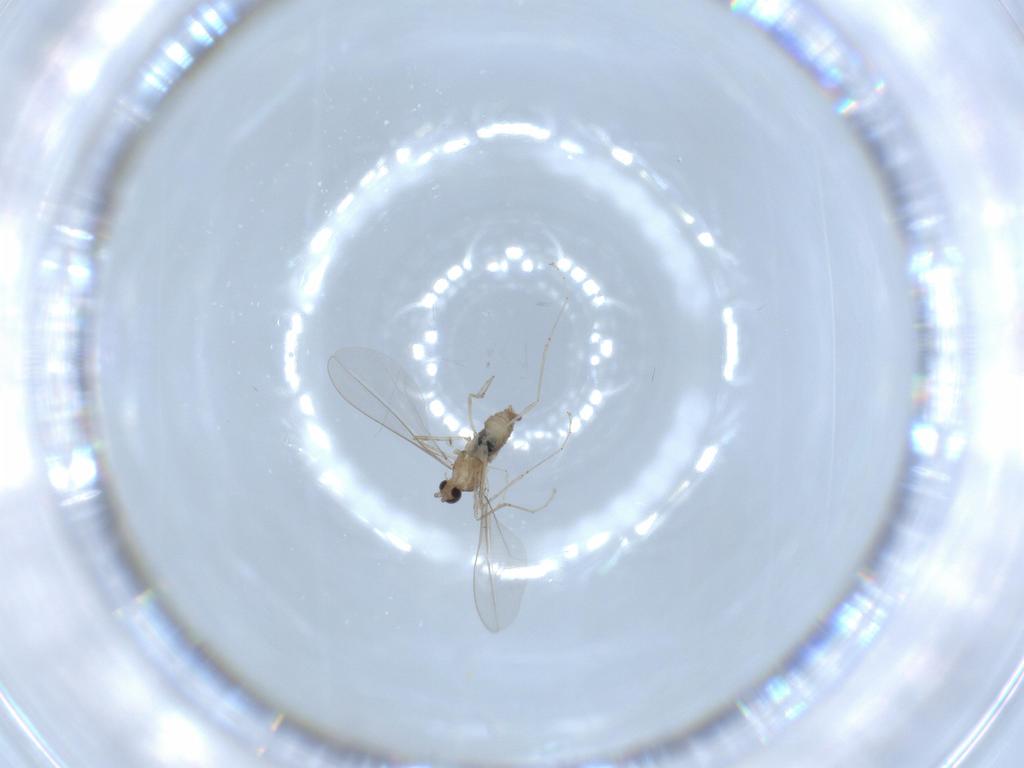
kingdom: Animalia
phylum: Arthropoda
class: Insecta
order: Diptera
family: Cecidomyiidae
